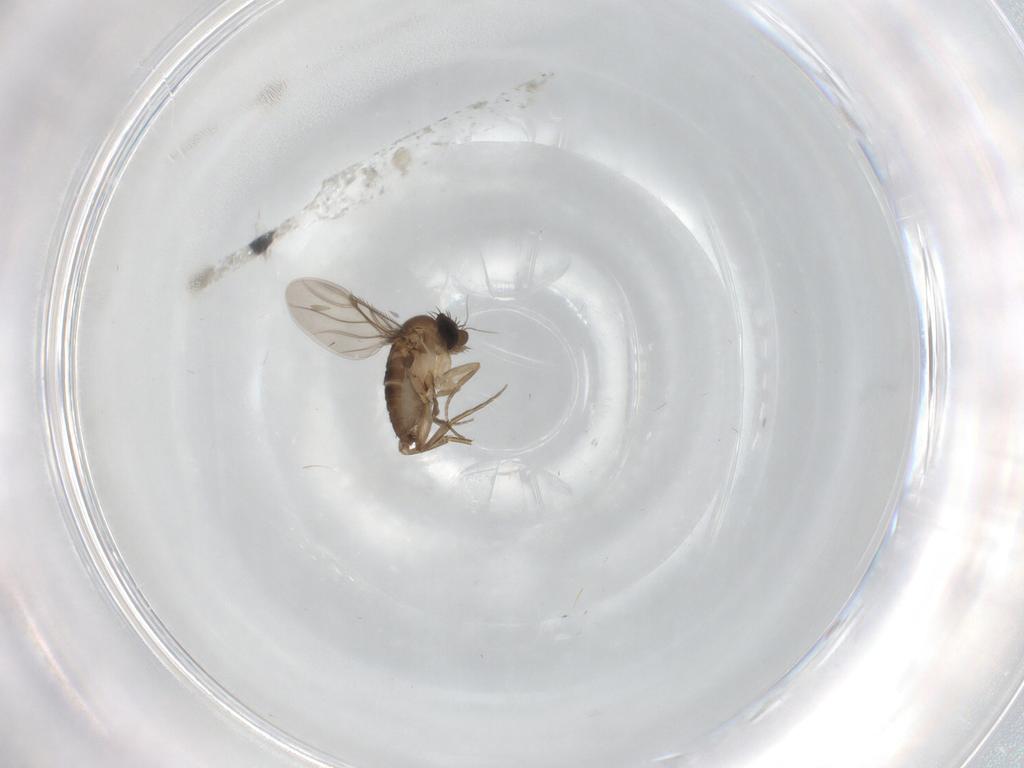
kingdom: Animalia
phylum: Arthropoda
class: Insecta
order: Diptera
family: Phoridae
